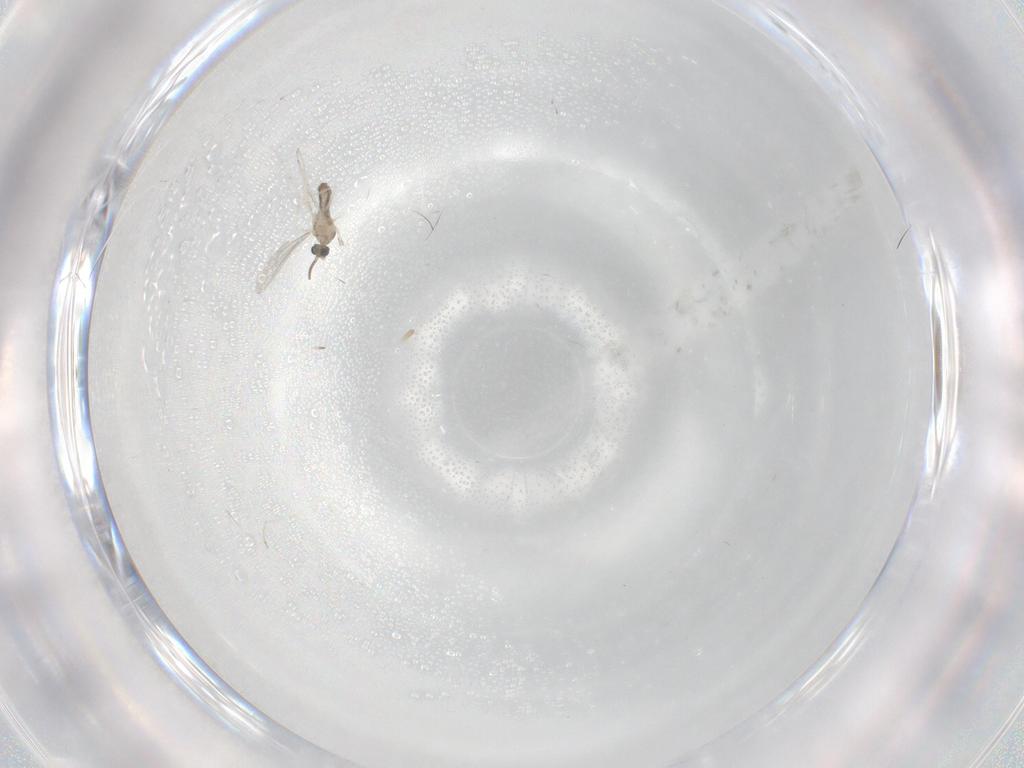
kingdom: Animalia
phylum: Arthropoda
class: Insecta
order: Diptera
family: Cecidomyiidae
